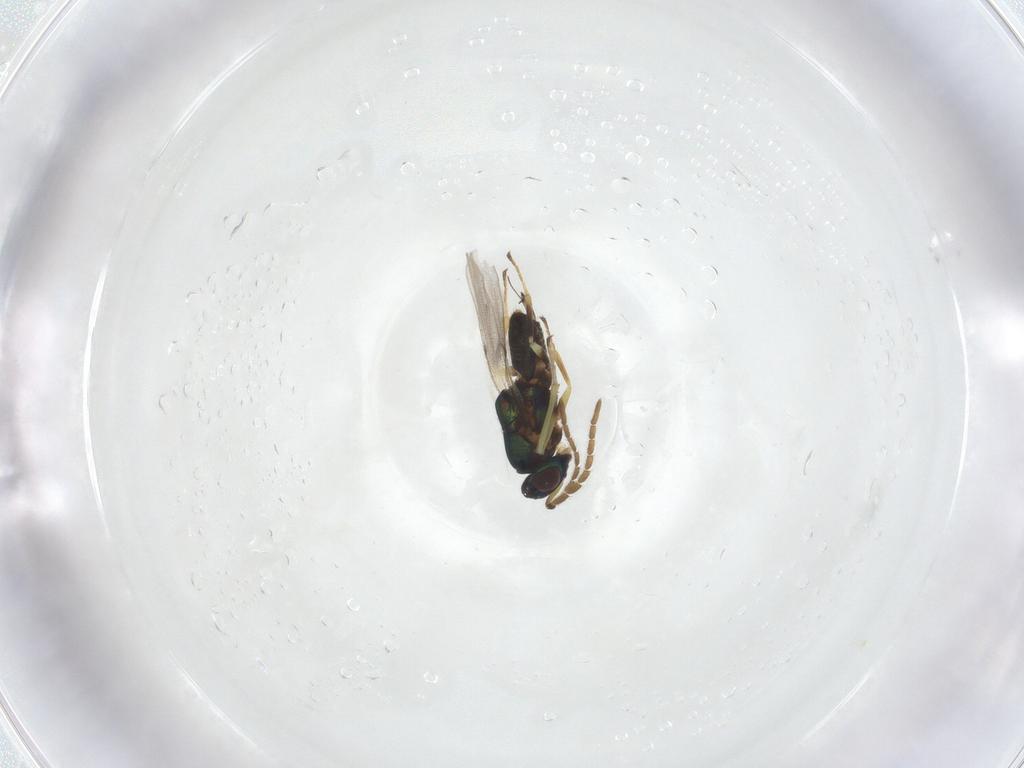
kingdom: Animalia
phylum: Arthropoda
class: Insecta
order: Hymenoptera
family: Encyrtidae
